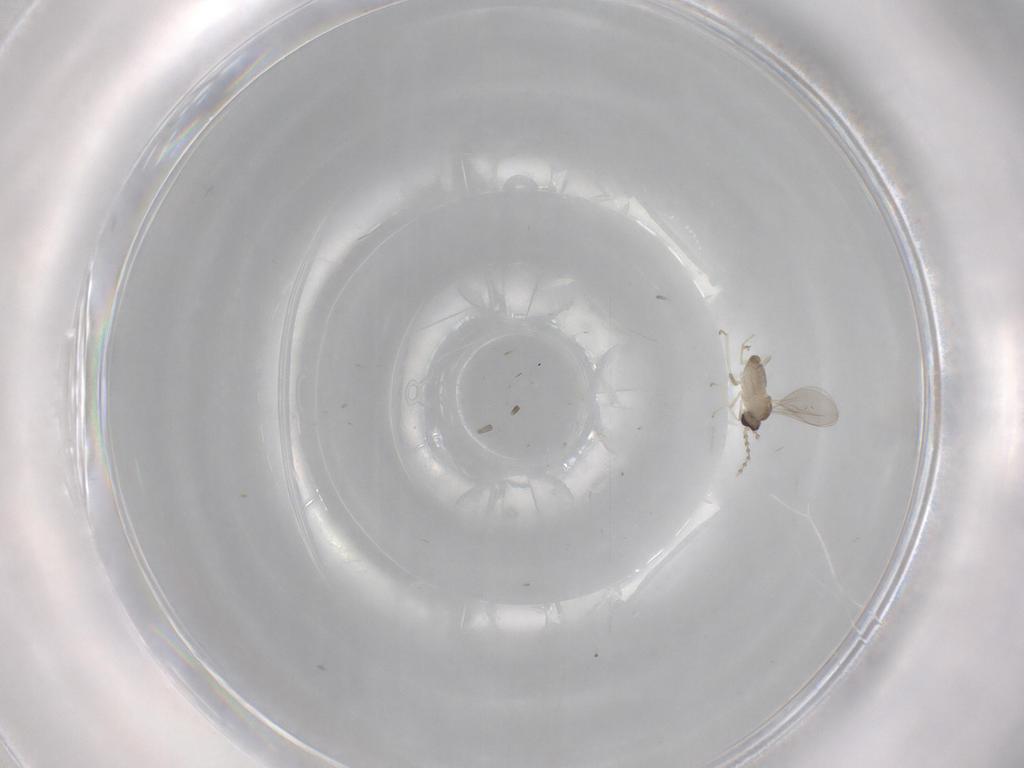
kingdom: Animalia
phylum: Arthropoda
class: Insecta
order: Diptera
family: Cecidomyiidae
